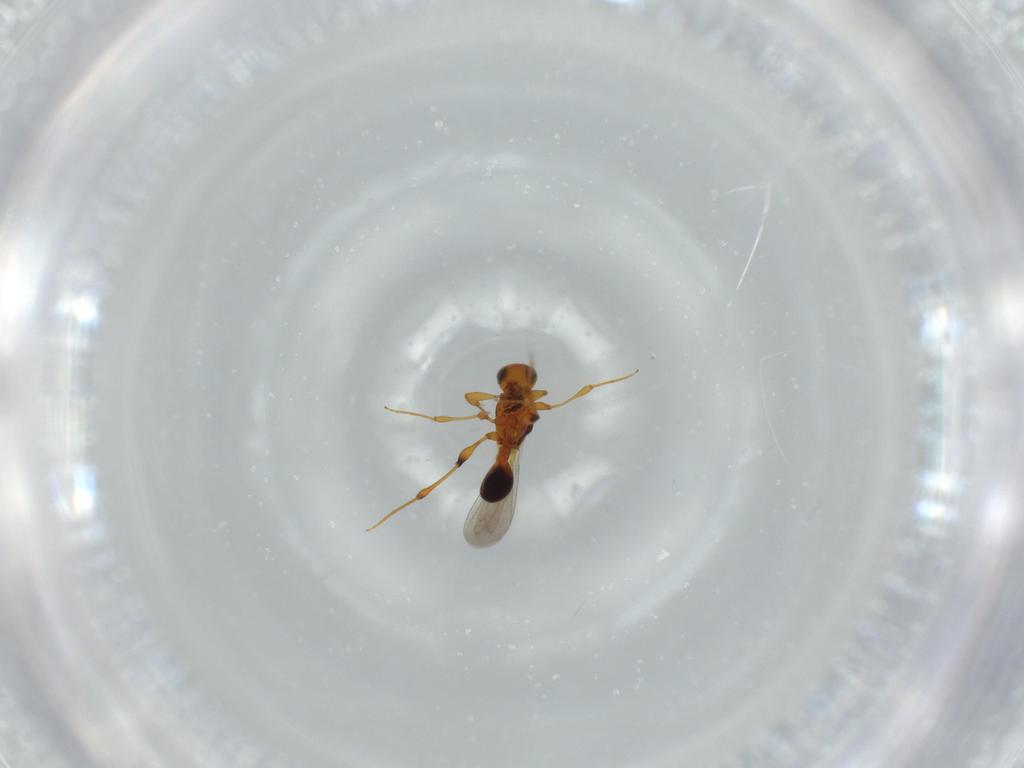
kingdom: Animalia
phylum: Arthropoda
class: Insecta
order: Hymenoptera
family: Platygastridae
